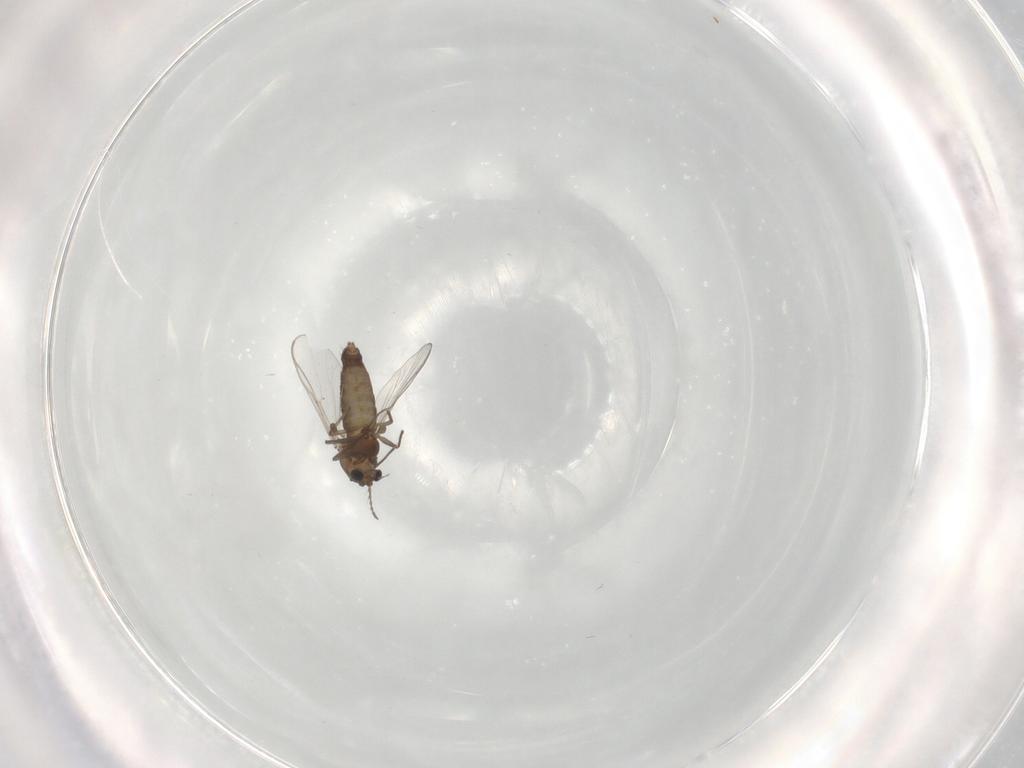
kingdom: Animalia
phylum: Arthropoda
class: Insecta
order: Diptera
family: Chironomidae
